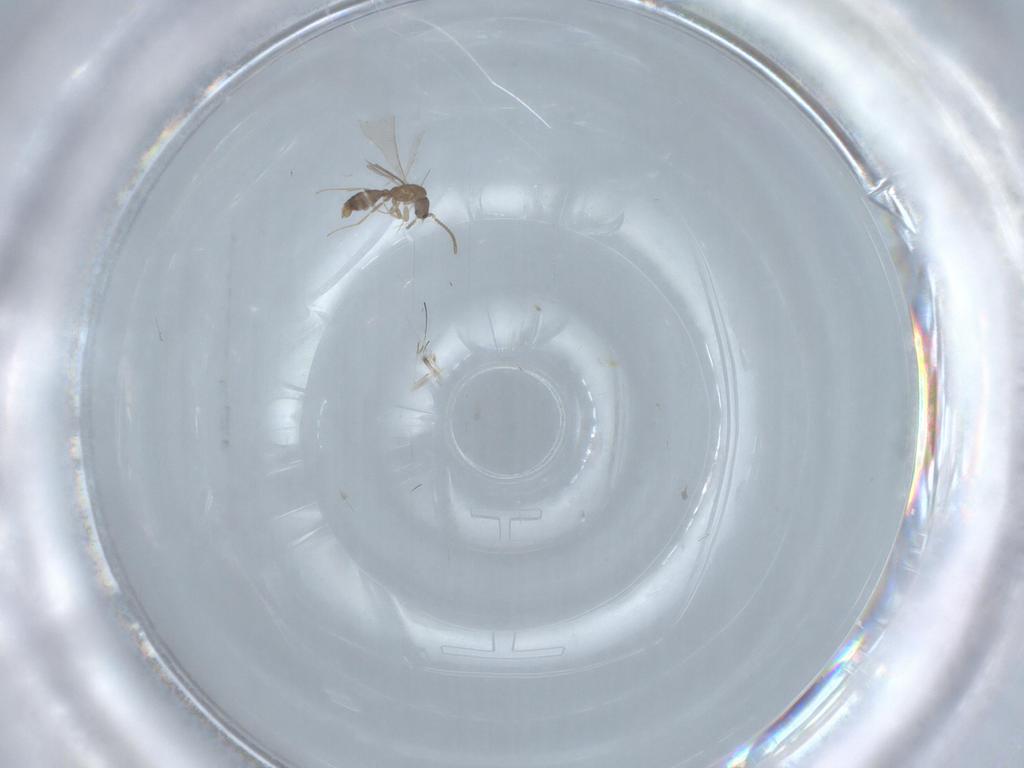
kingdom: Animalia
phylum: Arthropoda
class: Insecta
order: Hymenoptera
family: Formicidae
